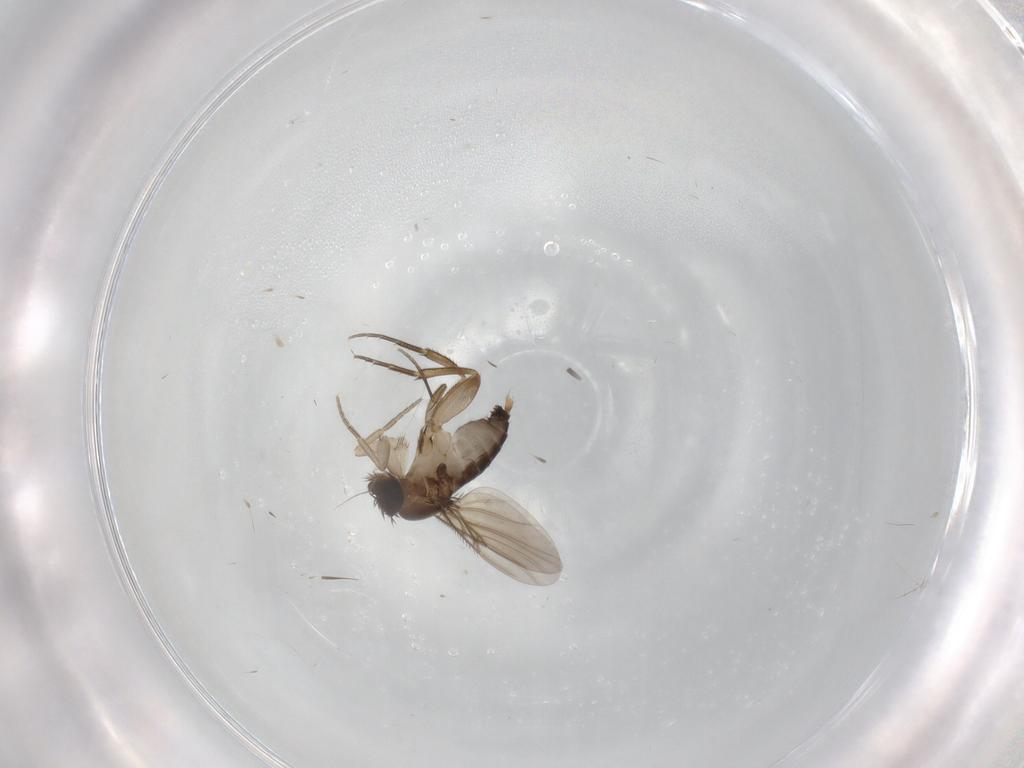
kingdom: Animalia
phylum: Arthropoda
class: Insecta
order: Diptera
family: Phoridae
